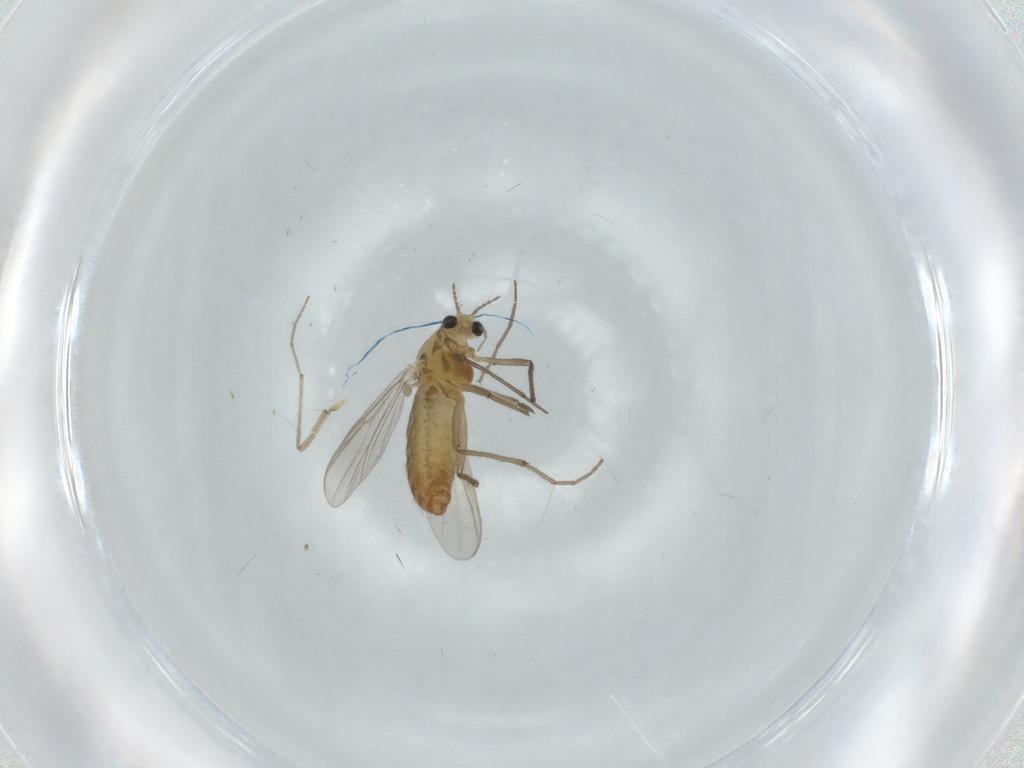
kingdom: Animalia
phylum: Arthropoda
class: Insecta
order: Diptera
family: Chironomidae
